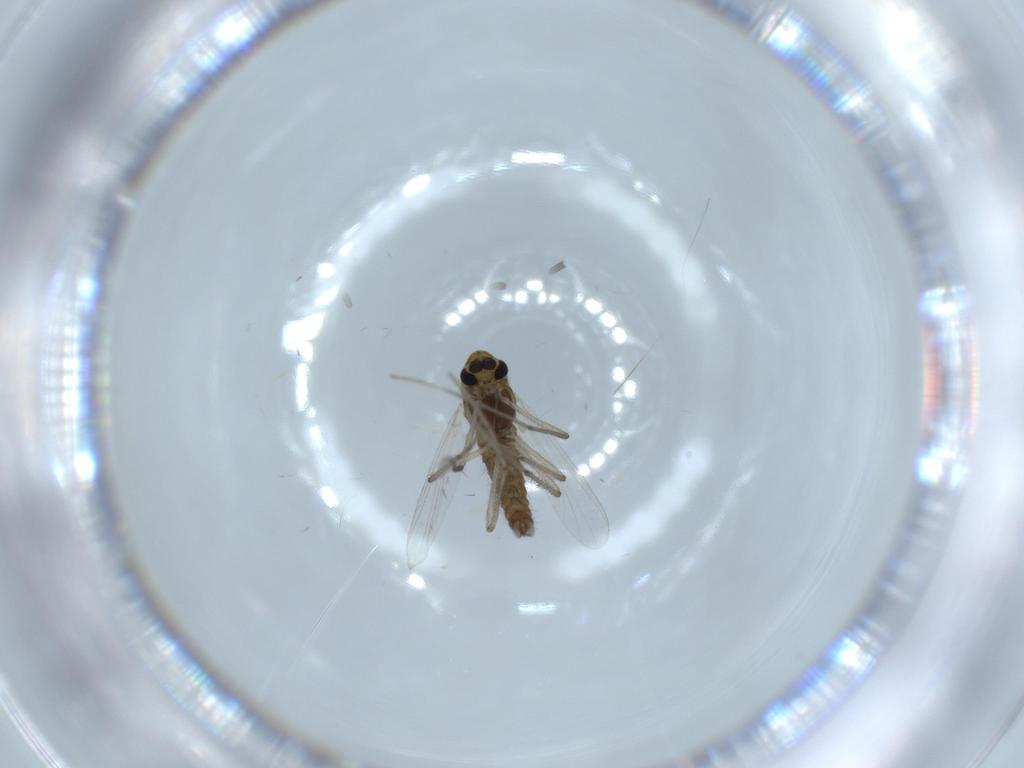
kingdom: Animalia
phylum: Arthropoda
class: Insecta
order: Diptera
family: Chironomidae
